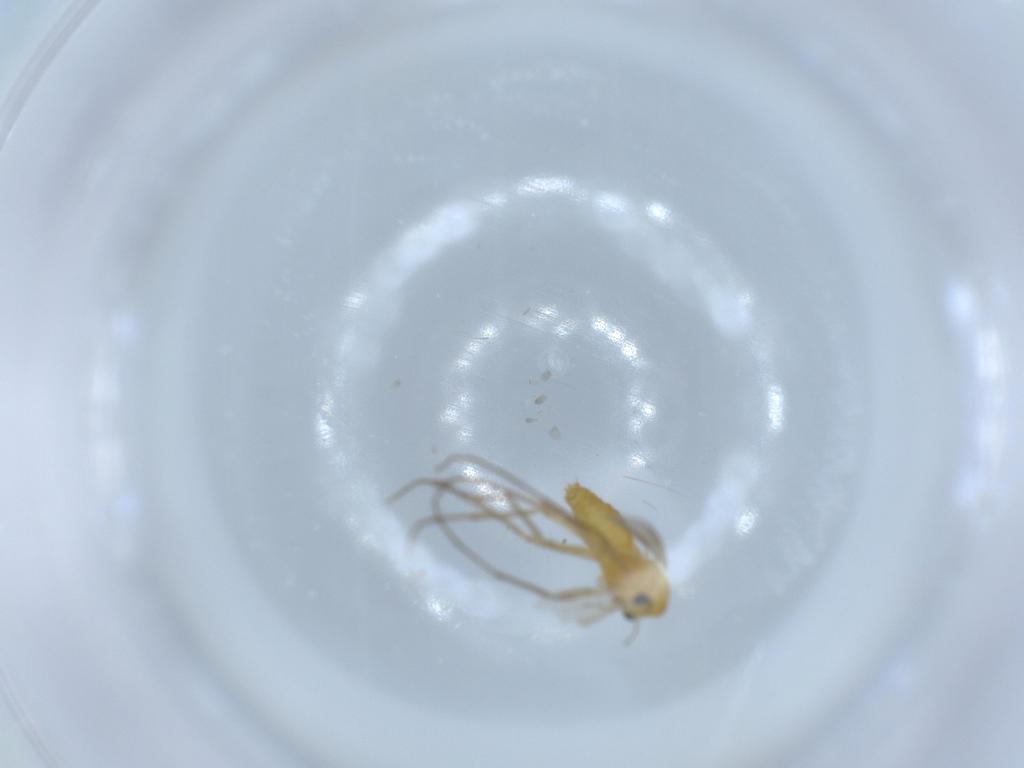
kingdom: Animalia
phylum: Arthropoda
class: Insecta
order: Diptera
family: Chironomidae
